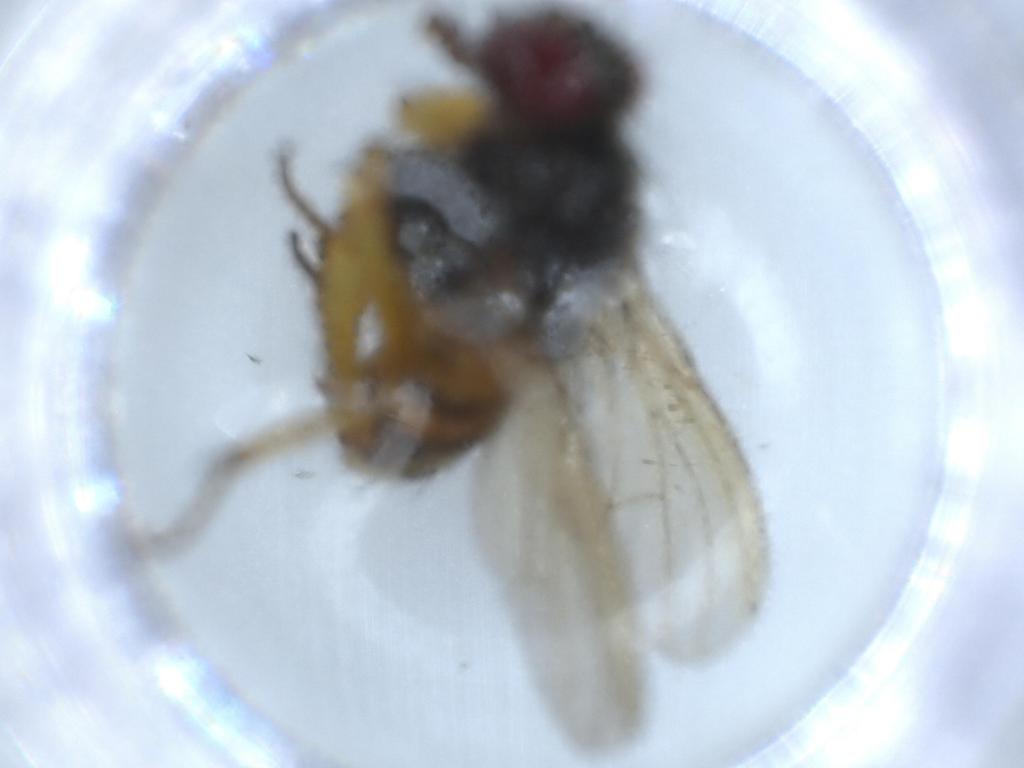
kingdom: Animalia
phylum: Arthropoda
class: Insecta
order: Diptera
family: Muscidae
